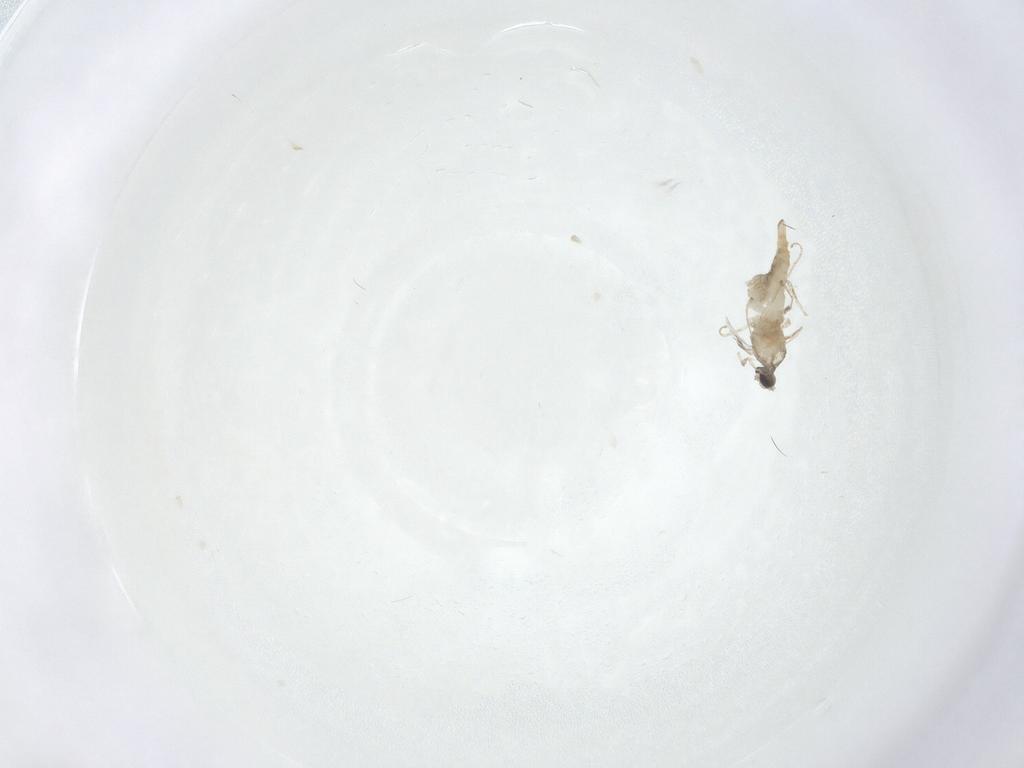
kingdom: Animalia
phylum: Arthropoda
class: Insecta
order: Diptera
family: Cecidomyiidae
